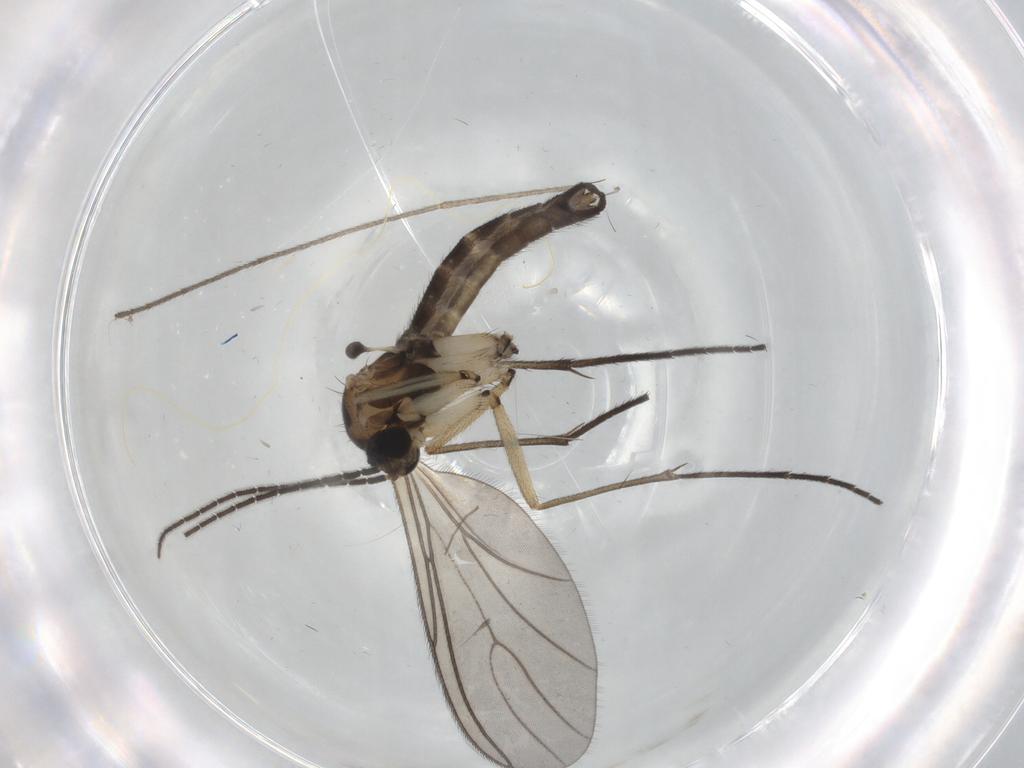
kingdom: Animalia
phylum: Arthropoda
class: Insecta
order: Diptera
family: Sciaridae
